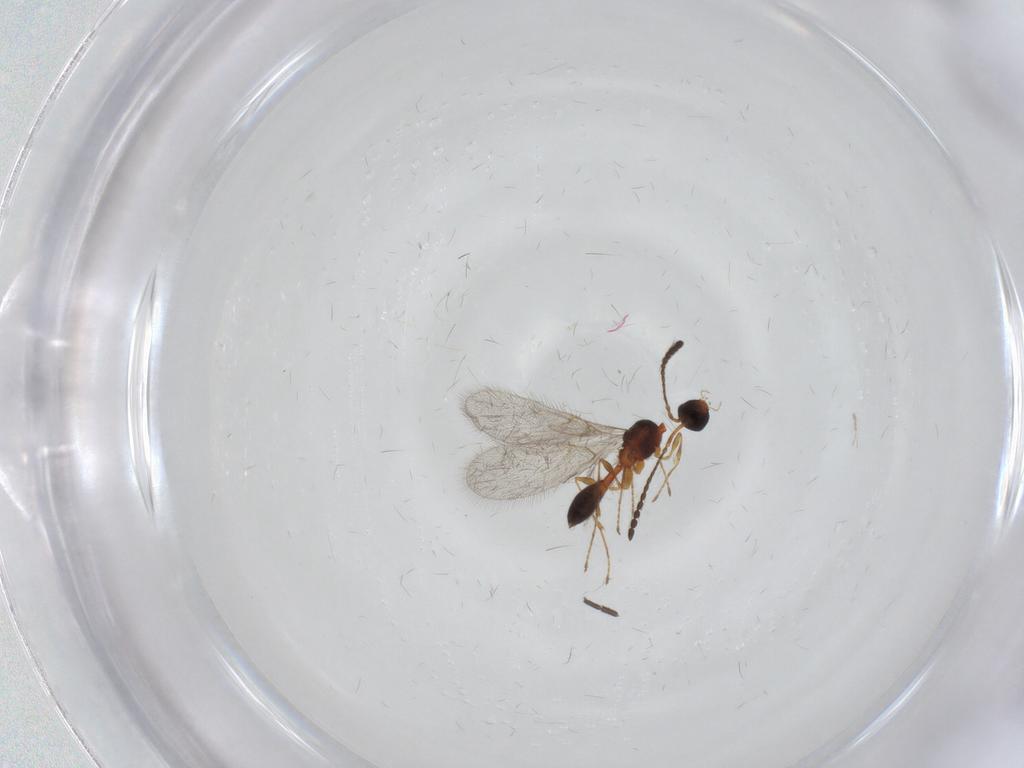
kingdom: Animalia
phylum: Arthropoda
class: Insecta
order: Hymenoptera
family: Diapriidae
